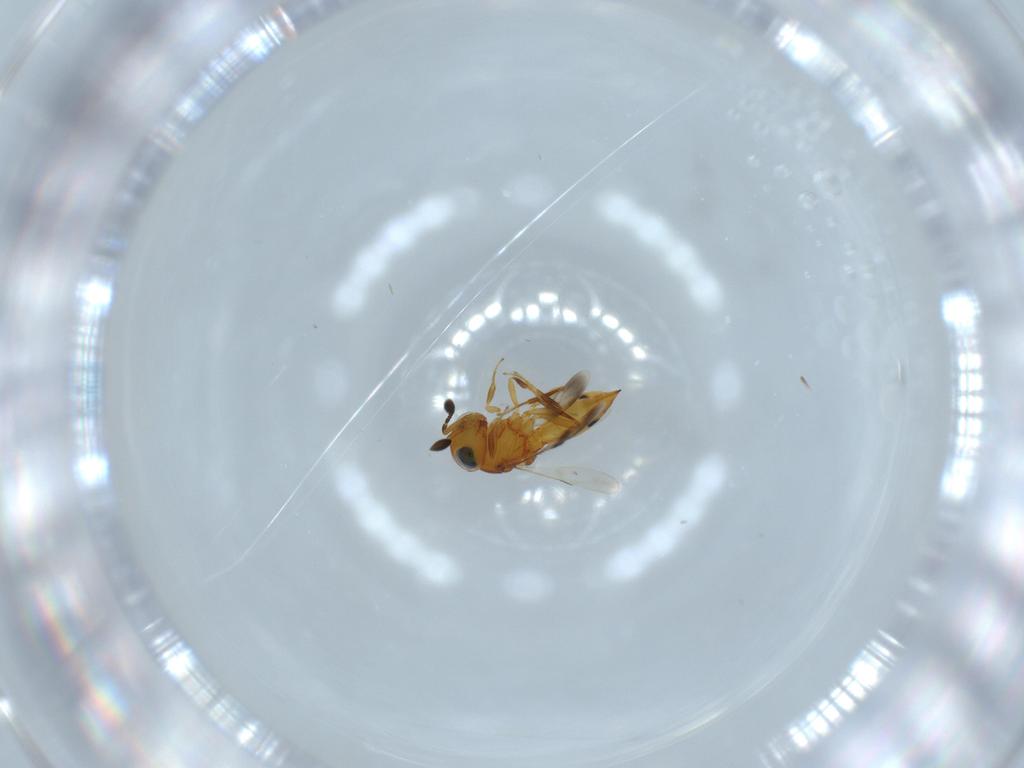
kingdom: Animalia
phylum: Arthropoda
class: Insecta
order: Hymenoptera
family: Scelionidae
